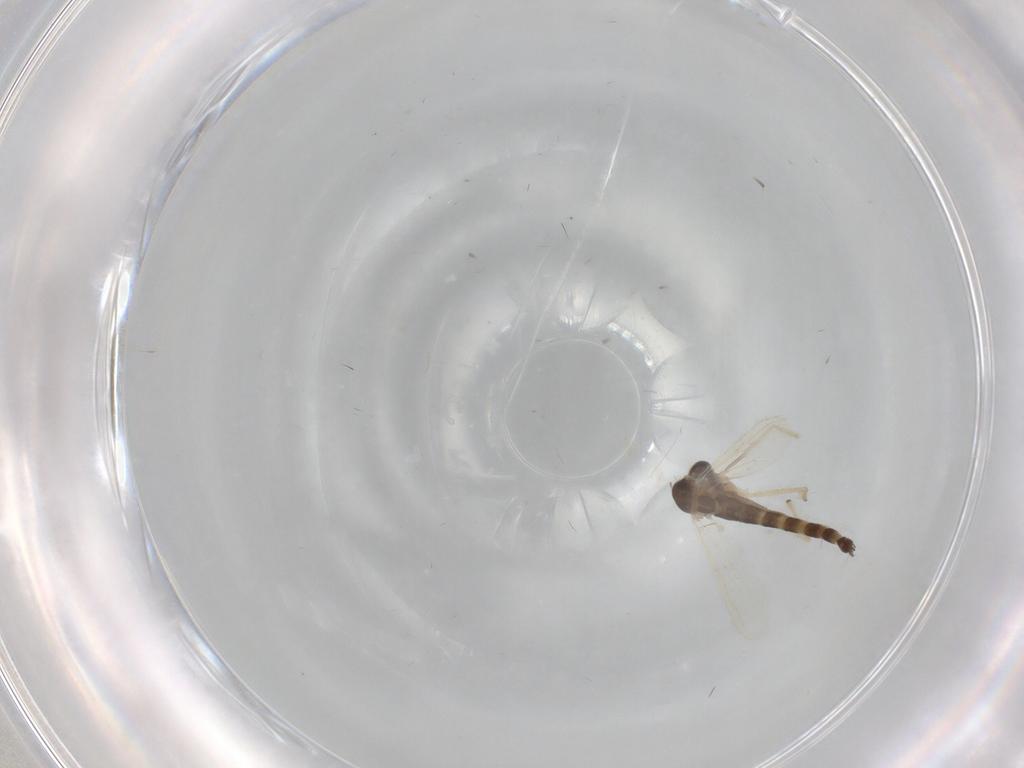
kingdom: Animalia
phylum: Arthropoda
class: Insecta
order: Diptera
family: Chironomidae
